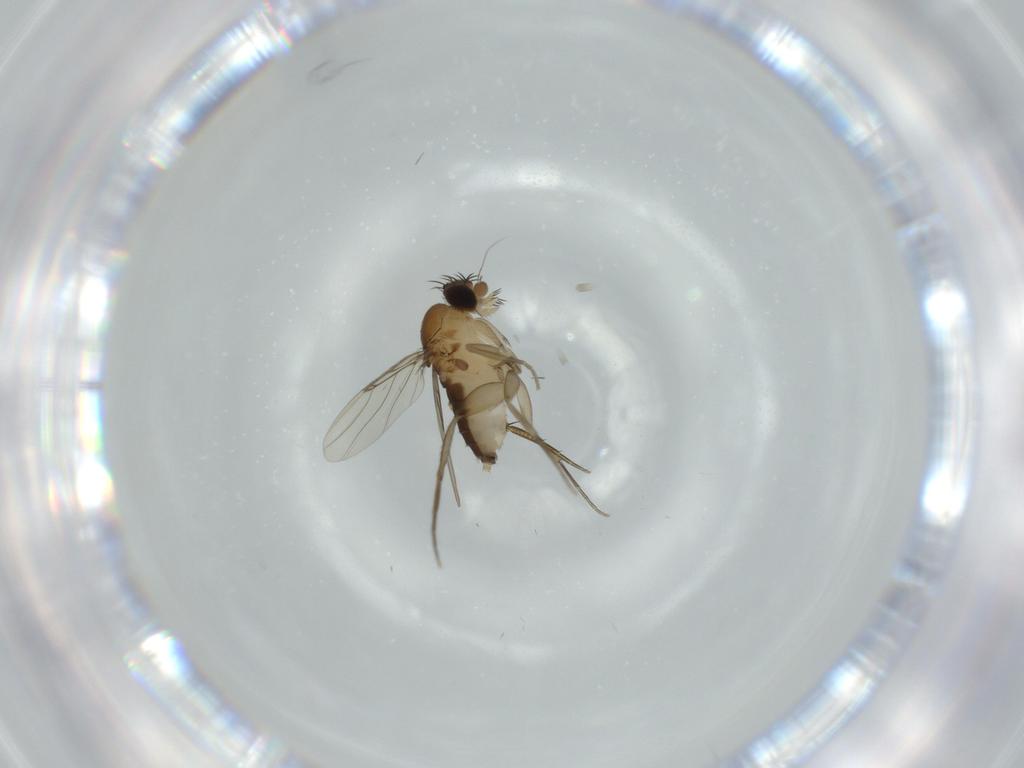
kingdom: Animalia
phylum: Arthropoda
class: Insecta
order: Diptera
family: Phoridae
